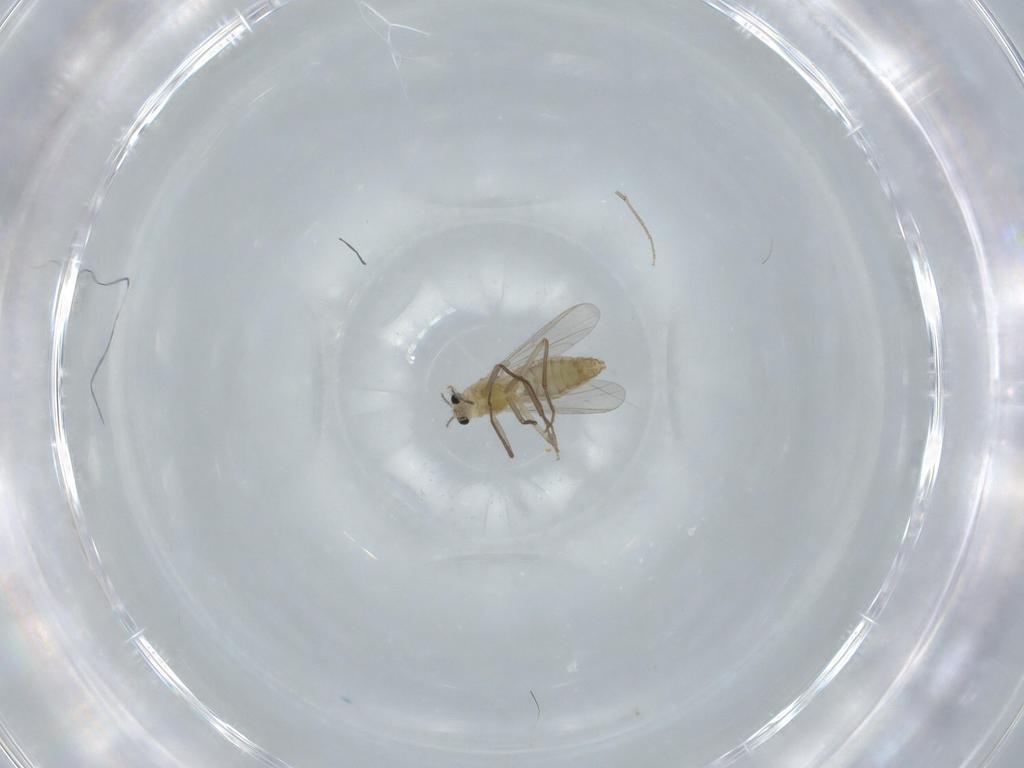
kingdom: Animalia
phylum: Arthropoda
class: Insecta
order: Diptera
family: Chironomidae
